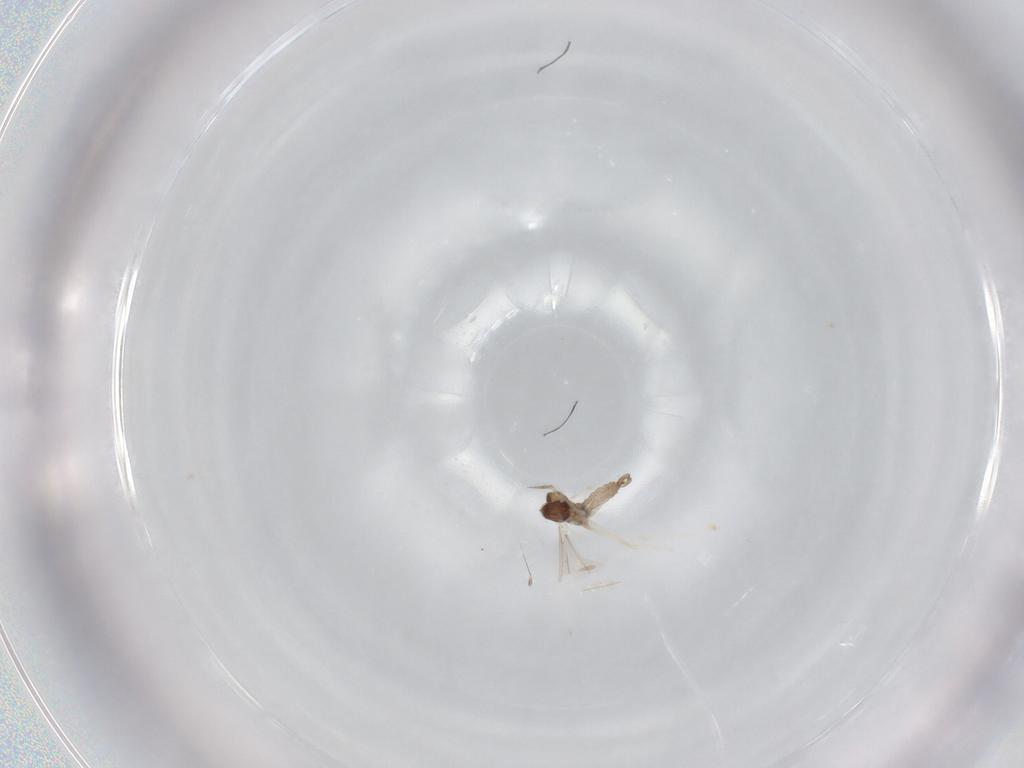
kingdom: Animalia
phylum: Arthropoda
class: Insecta
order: Diptera
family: Cecidomyiidae
